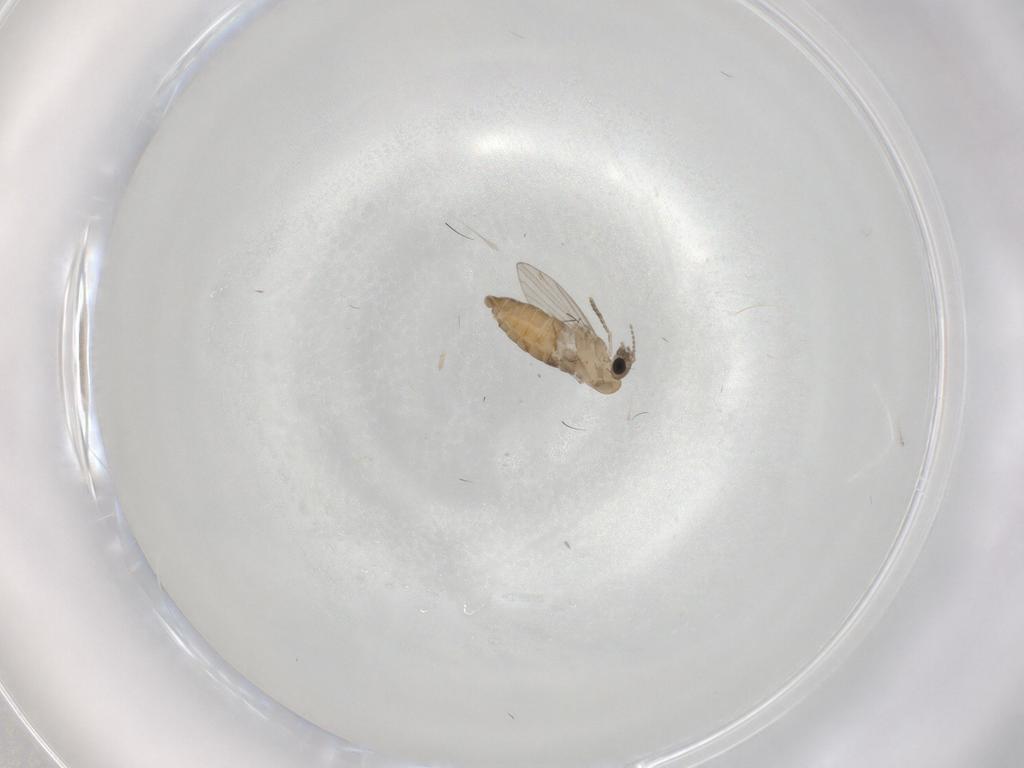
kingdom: Animalia
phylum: Arthropoda
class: Insecta
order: Diptera
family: Psychodidae
